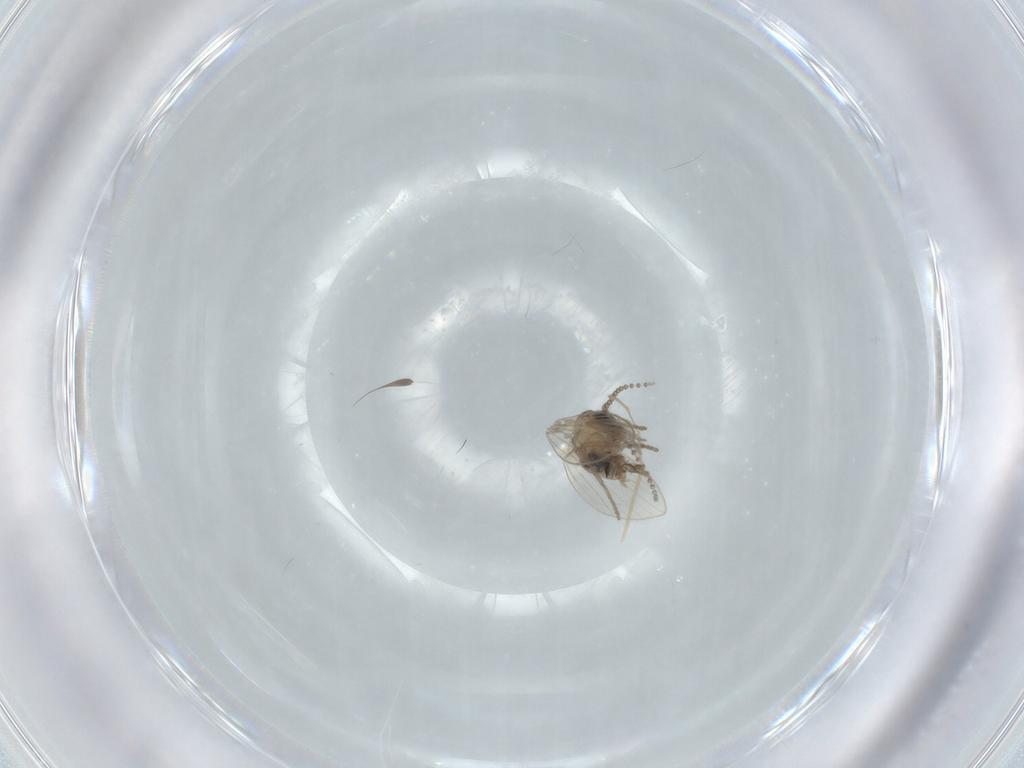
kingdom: Animalia
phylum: Arthropoda
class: Insecta
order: Diptera
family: Psychodidae
